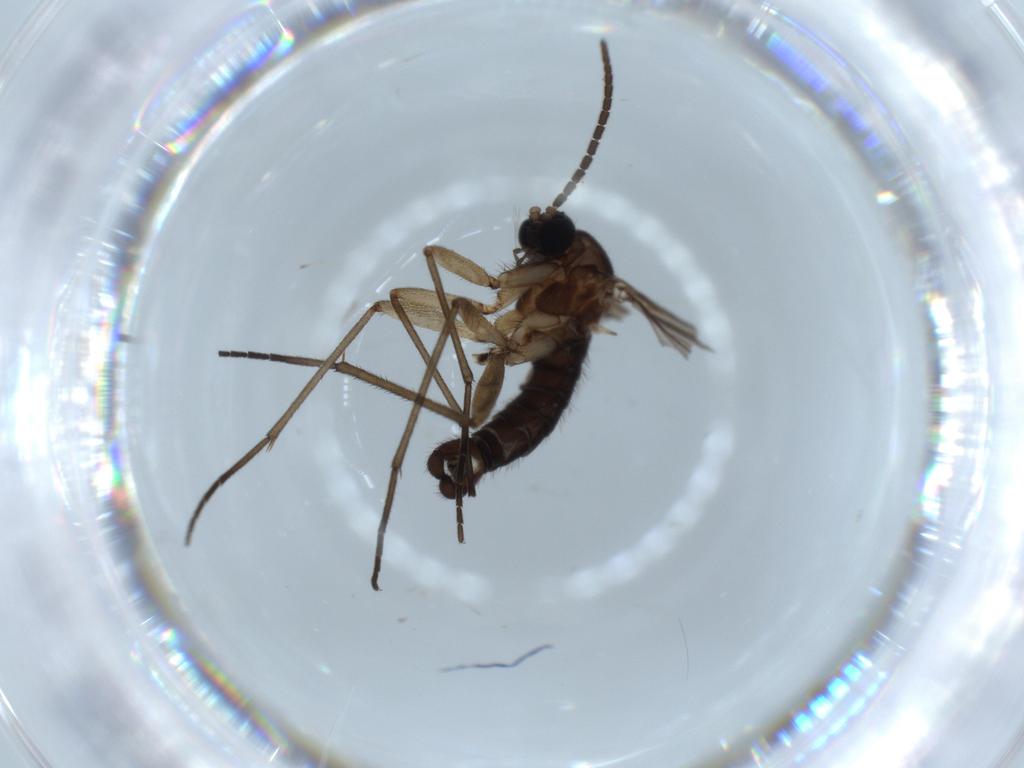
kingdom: Animalia
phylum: Arthropoda
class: Insecta
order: Diptera
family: Sciaridae
